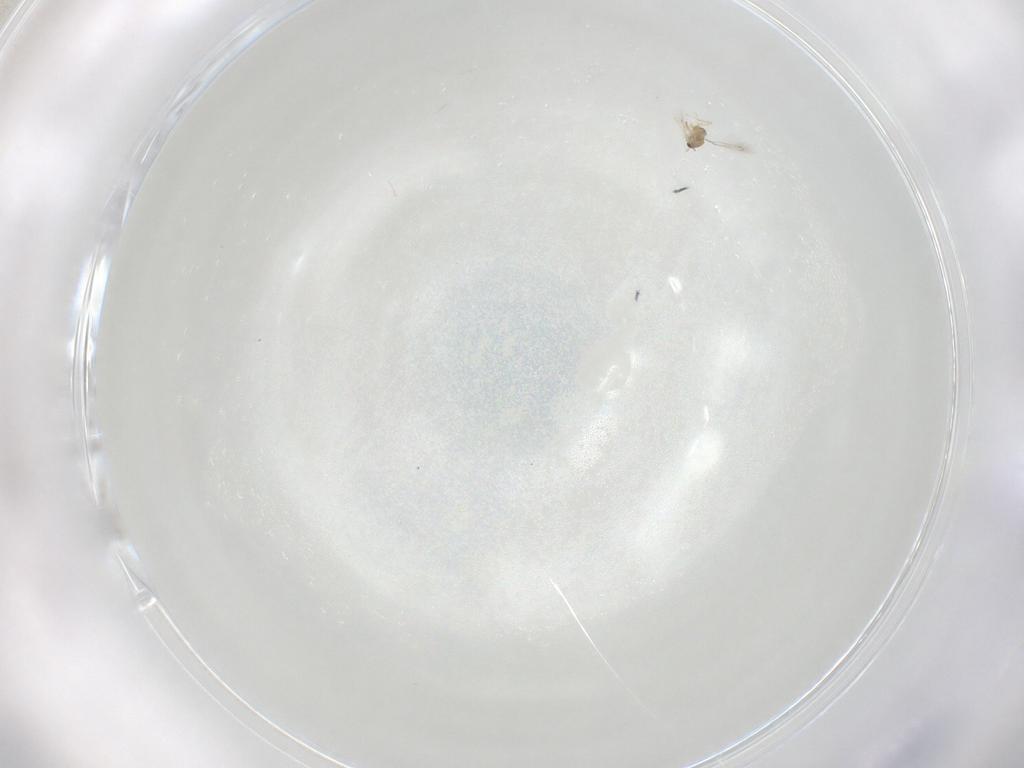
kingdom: Animalia
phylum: Arthropoda
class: Insecta
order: Hymenoptera
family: Mymaridae
